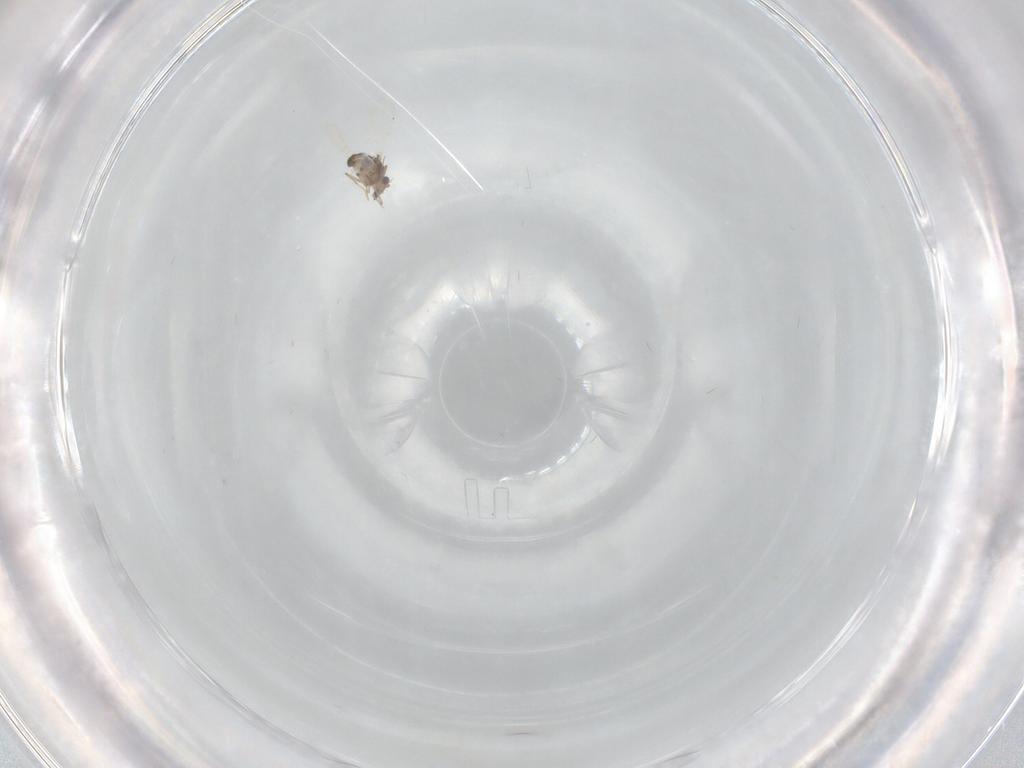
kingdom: Animalia
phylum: Arthropoda
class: Insecta
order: Diptera
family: Ceratopogonidae
